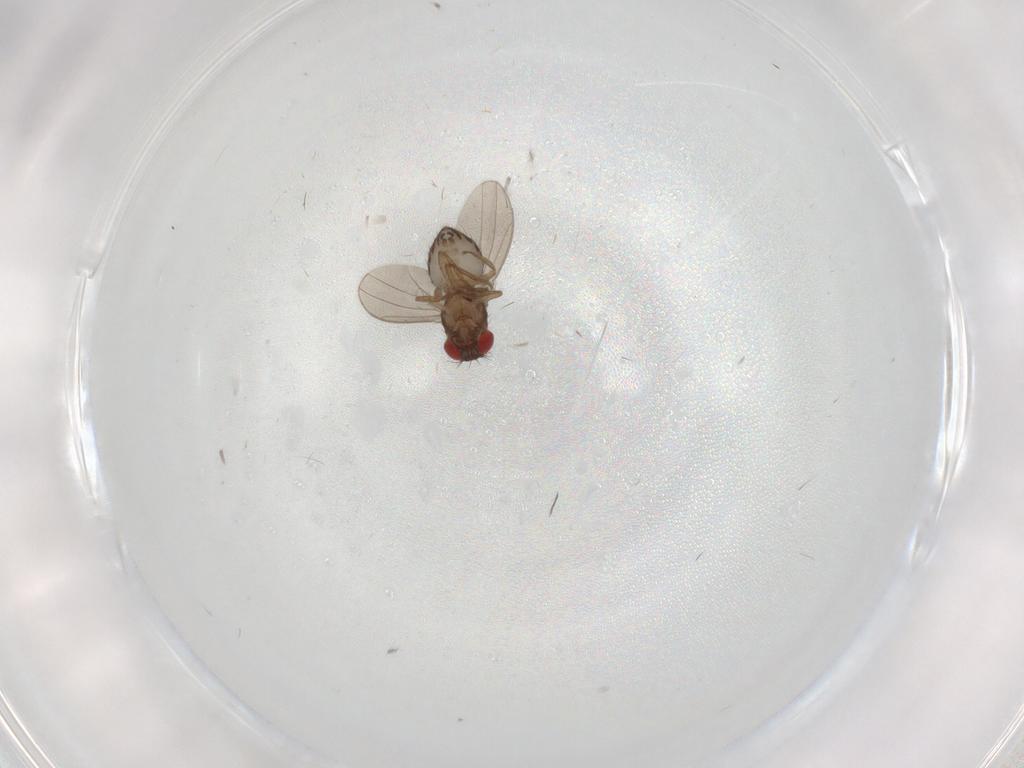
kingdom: Animalia
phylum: Arthropoda
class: Insecta
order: Diptera
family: Drosophilidae
